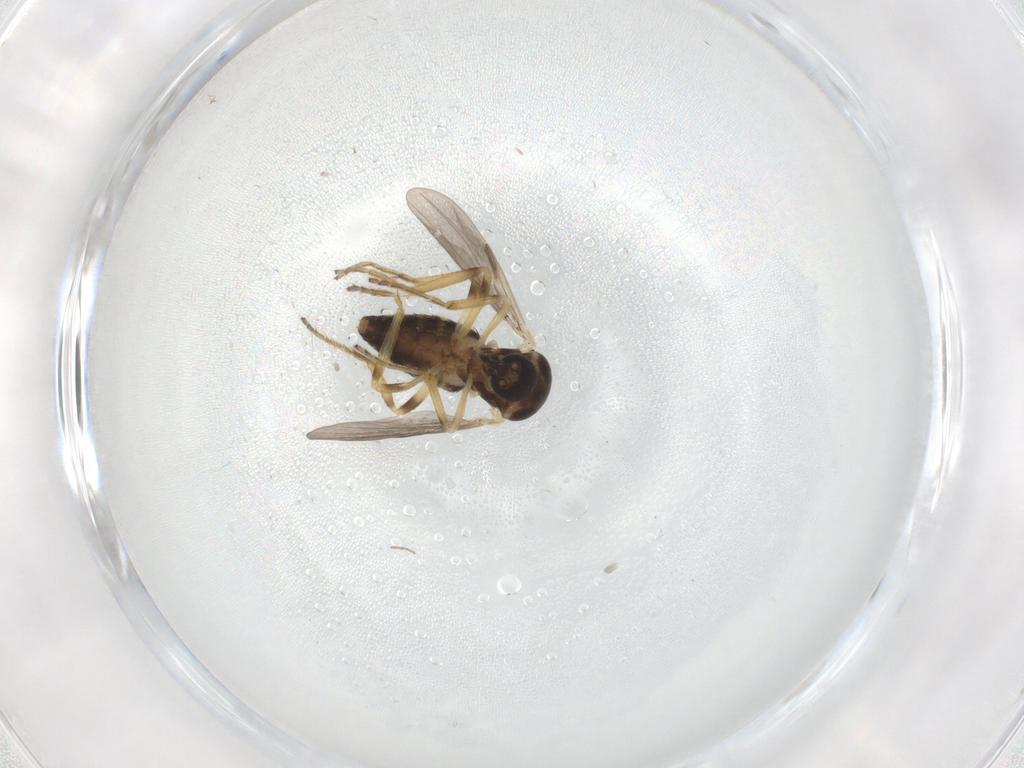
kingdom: Animalia
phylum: Arthropoda
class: Insecta
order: Diptera
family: Ceratopogonidae
